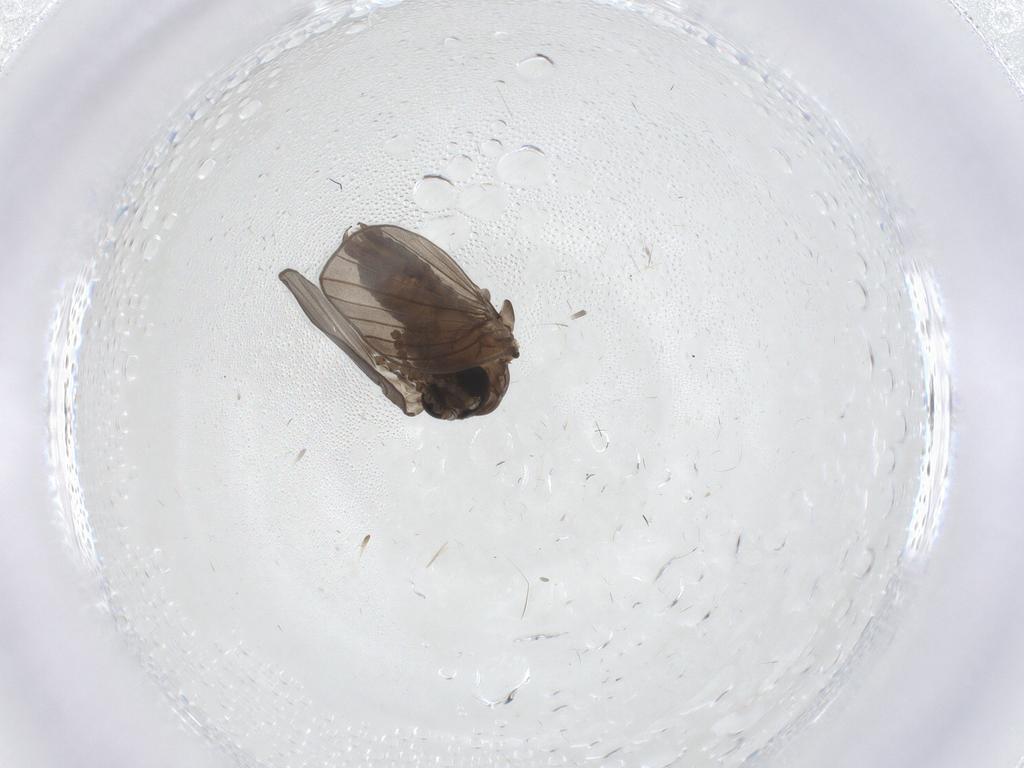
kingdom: Animalia
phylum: Arthropoda
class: Insecta
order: Diptera
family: Psychodidae
